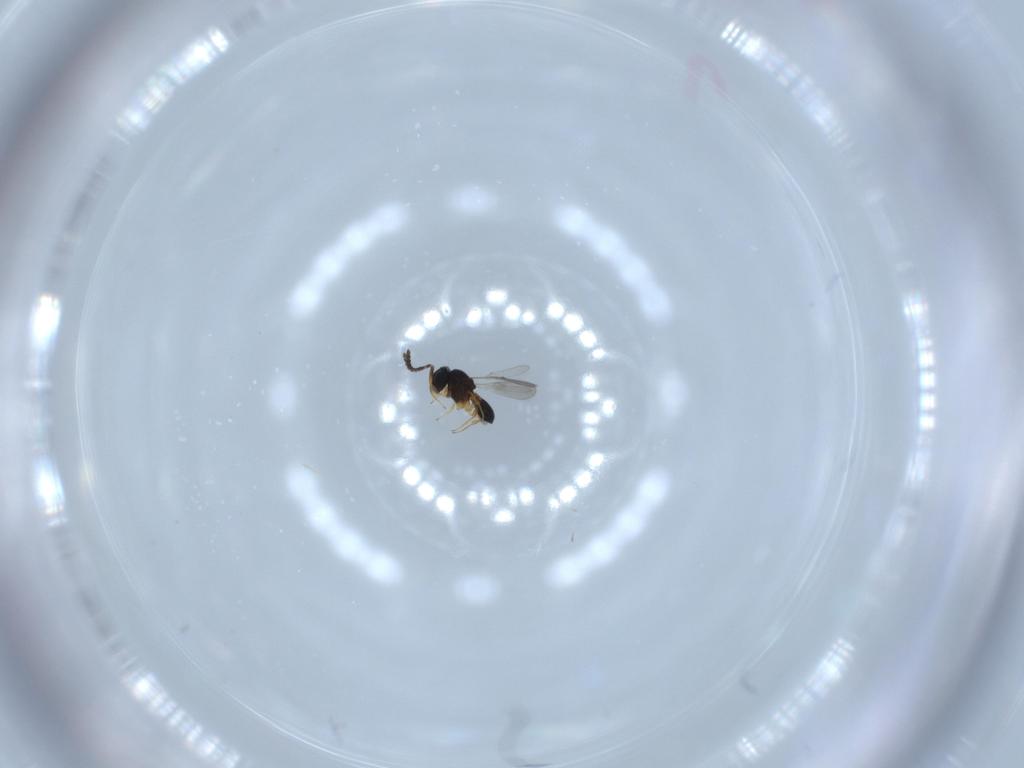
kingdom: Animalia
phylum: Arthropoda
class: Insecta
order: Hymenoptera
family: Scelionidae
